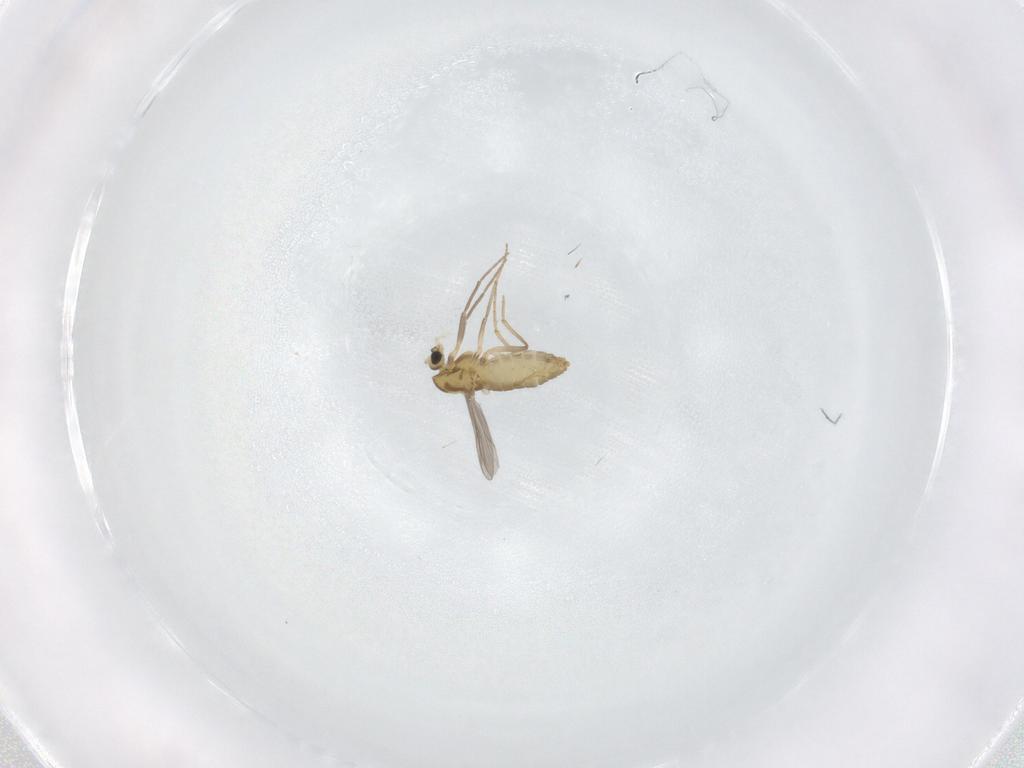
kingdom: Animalia
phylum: Arthropoda
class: Insecta
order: Diptera
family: Chironomidae
